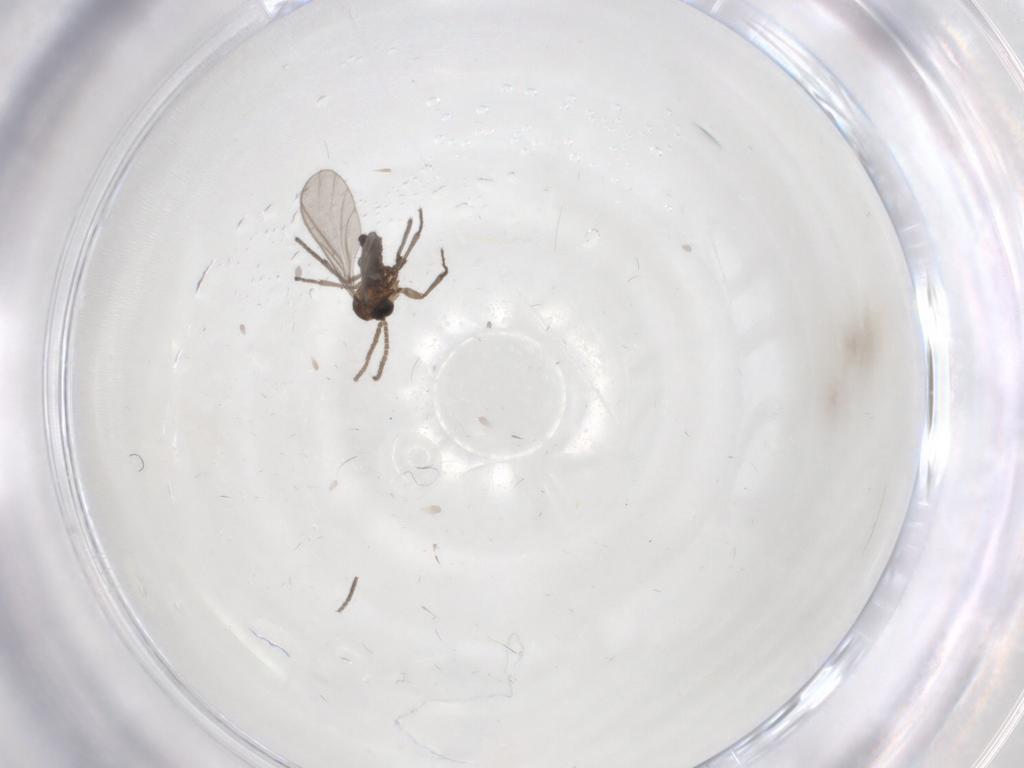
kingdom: Animalia
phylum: Arthropoda
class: Insecta
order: Diptera
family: Sciaridae
